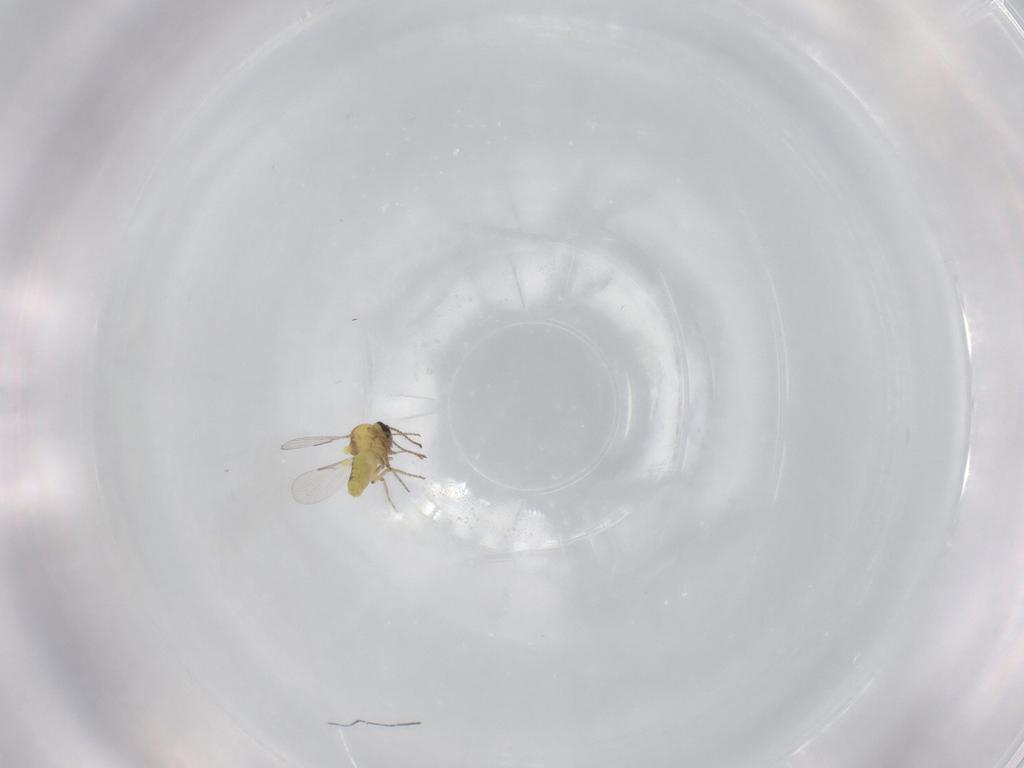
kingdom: Animalia
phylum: Arthropoda
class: Insecta
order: Diptera
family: Ceratopogonidae
